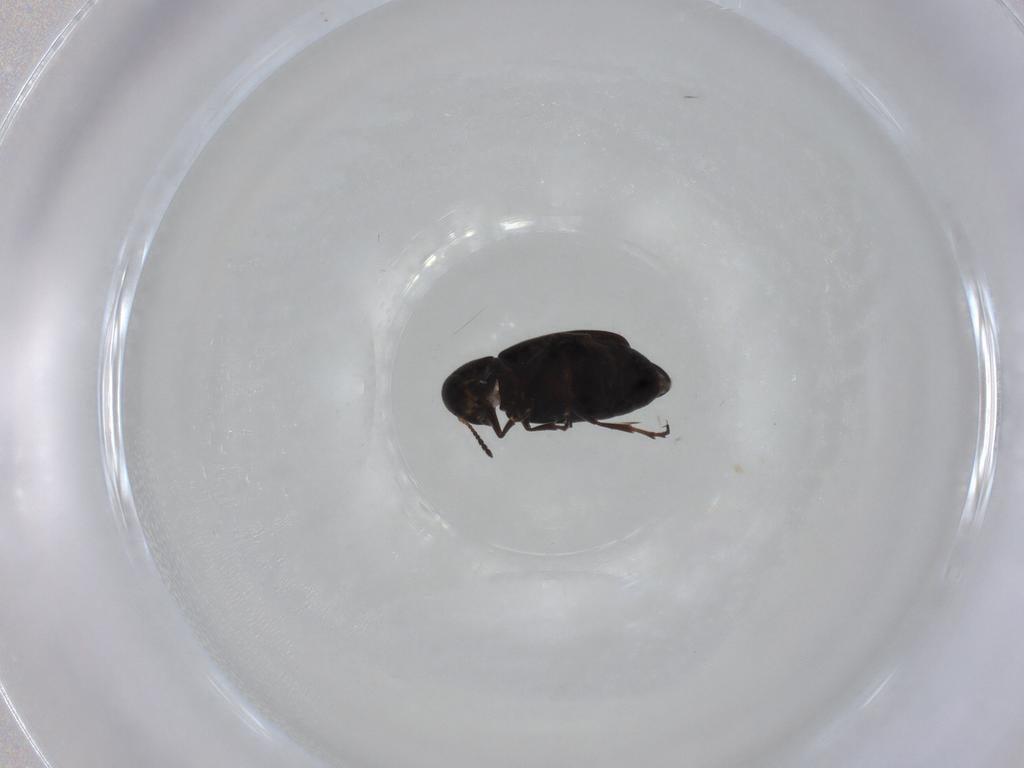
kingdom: Animalia
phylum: Arthropoda
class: Insecta
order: Coleoptera
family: Scraptiidae
